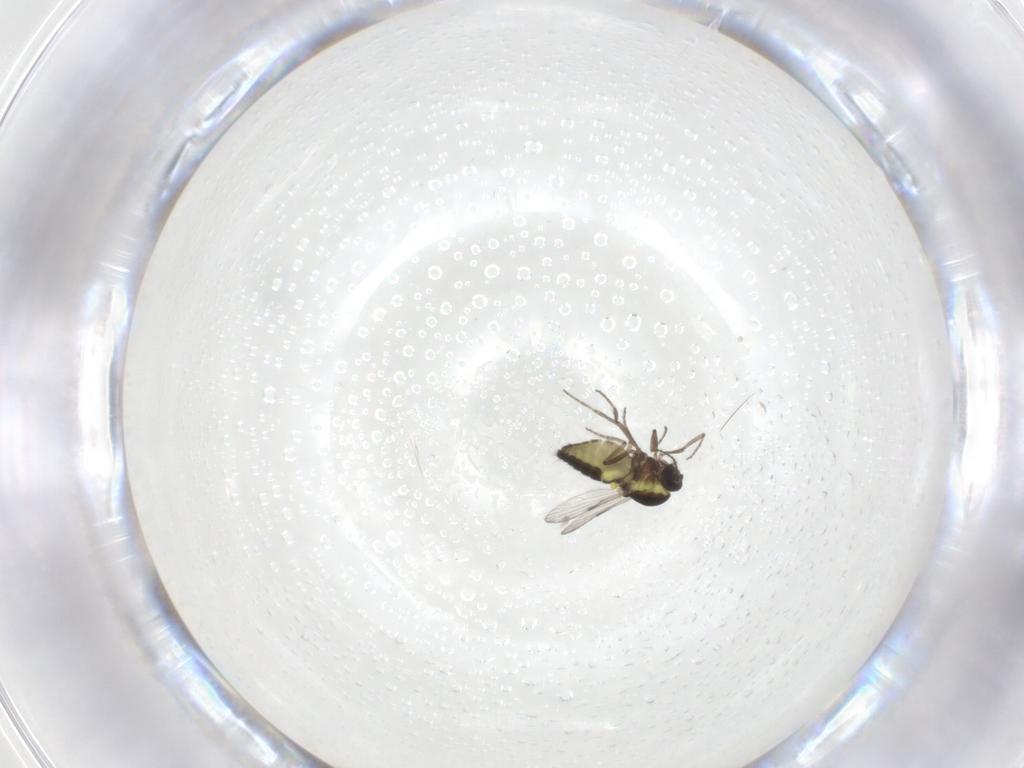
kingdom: Animalia
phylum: Arthropoda
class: Insecta
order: Diptera
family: Ceratopogonidae
